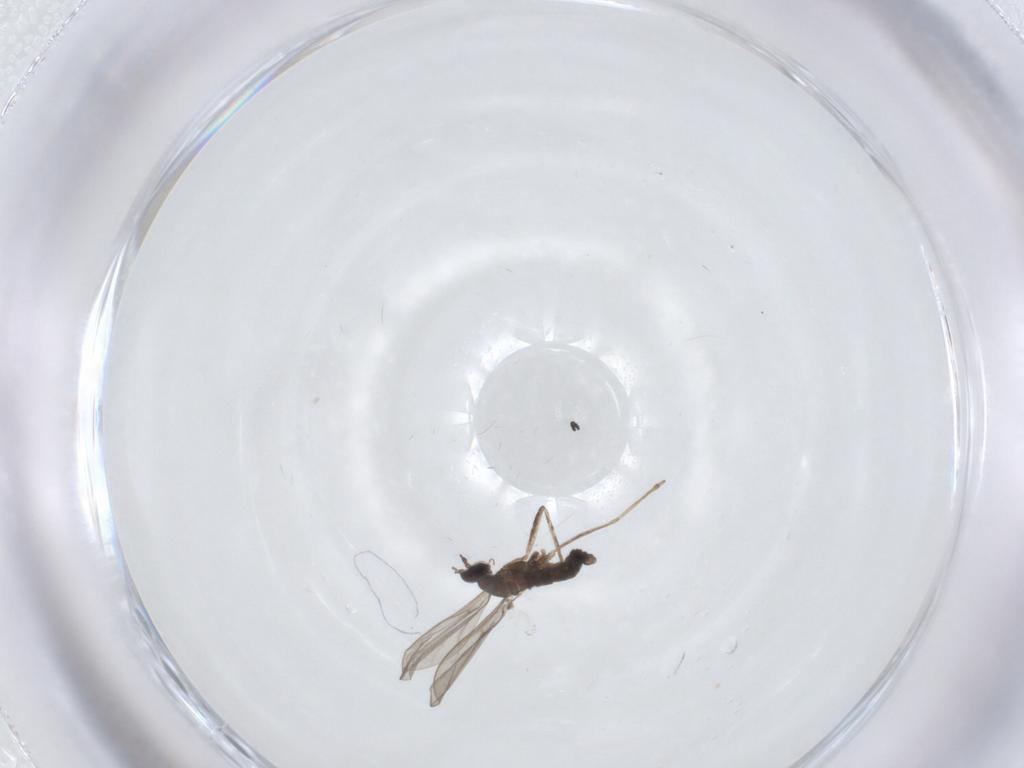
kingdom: Animalia
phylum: Arthropoda
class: Insecta
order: Diptera
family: Cecidomyiidae
